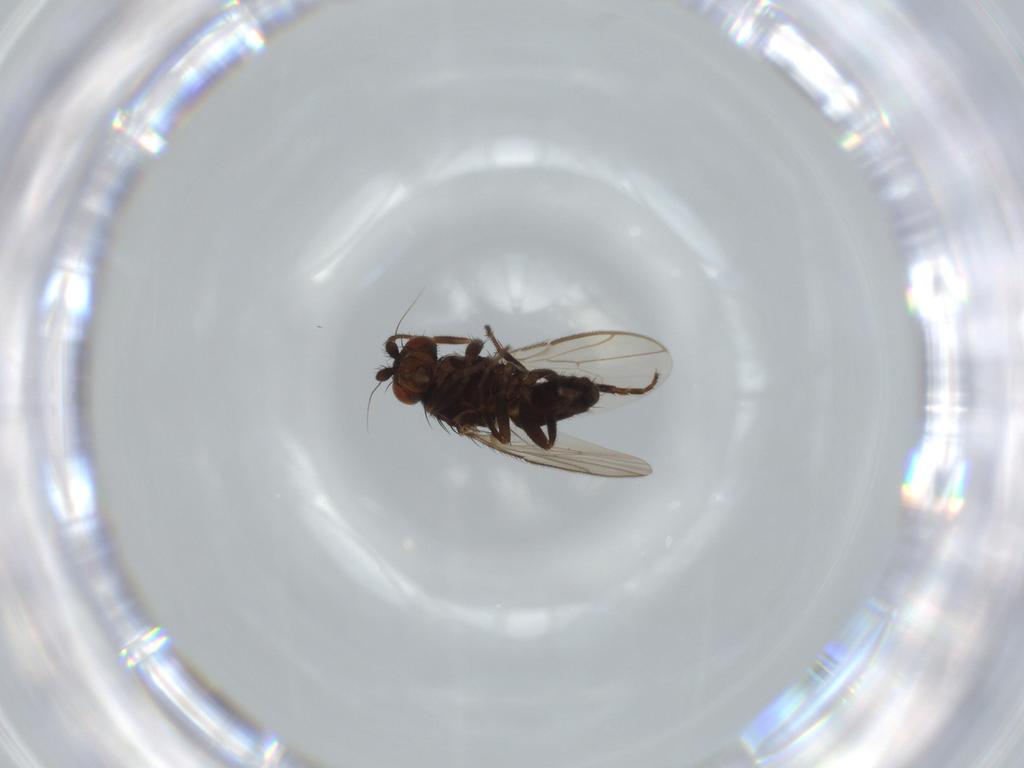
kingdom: Animalia
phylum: Arthropoda
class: Insecta
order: Diptera
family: Sphaeroceridae
